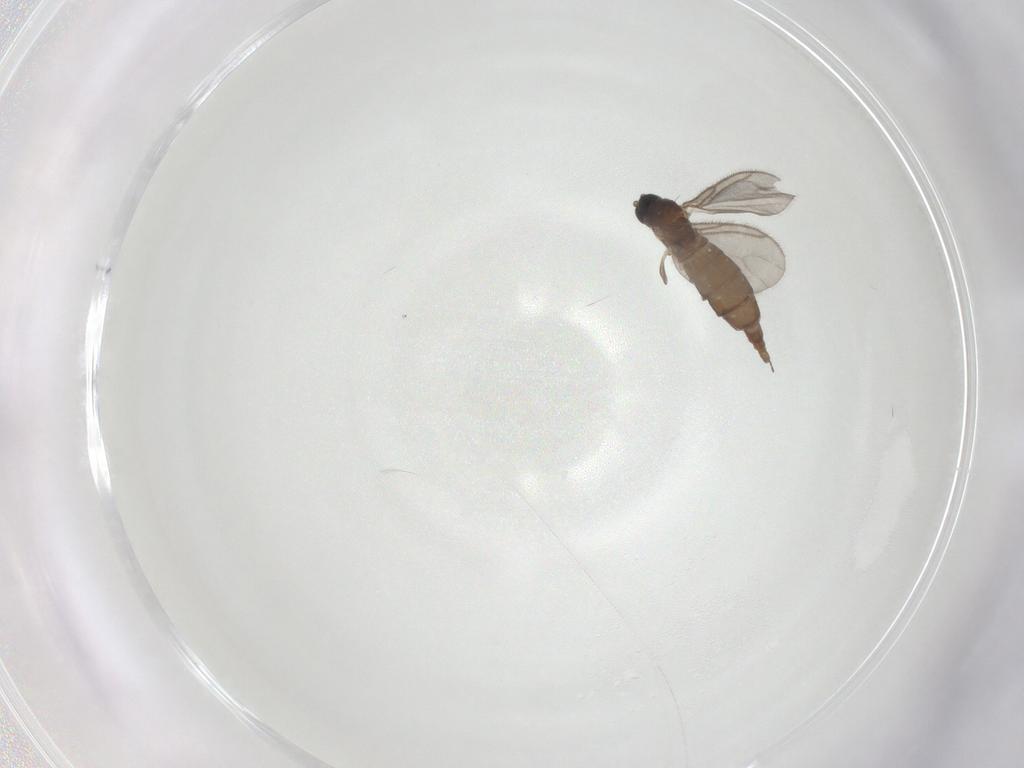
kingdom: Animalia
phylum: Arthropoda
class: Insecta
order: Diptera
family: Sciaridae
